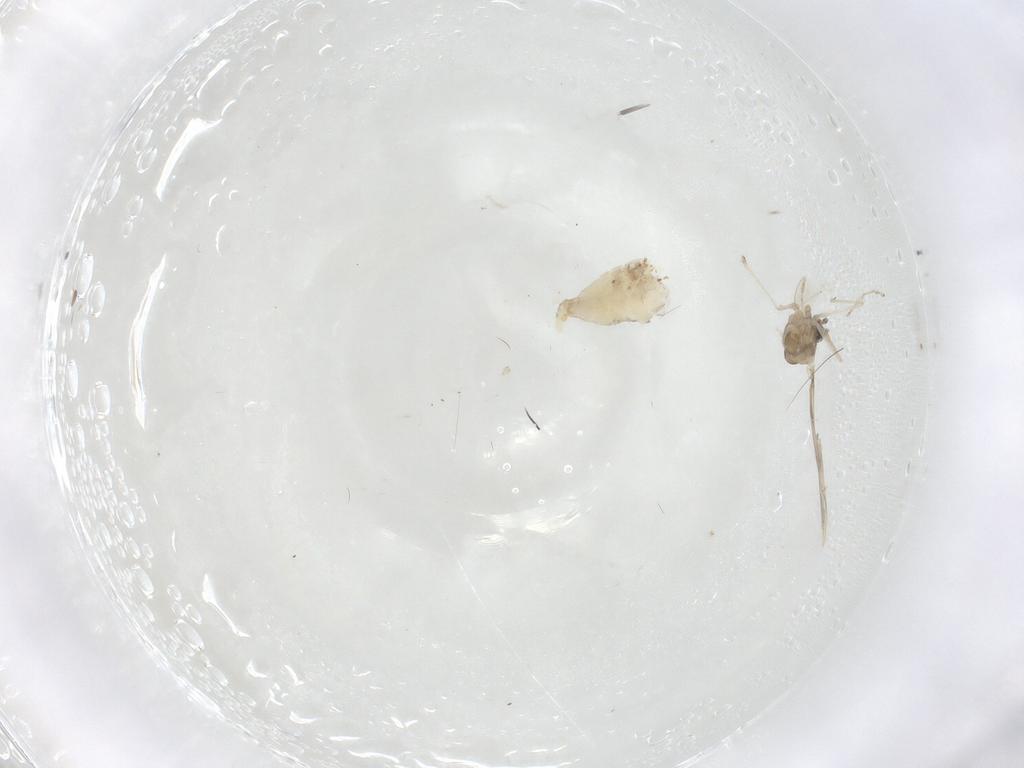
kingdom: Animalia
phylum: Arthropoda
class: Insecta
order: Diptera
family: Cecidomyiidae
